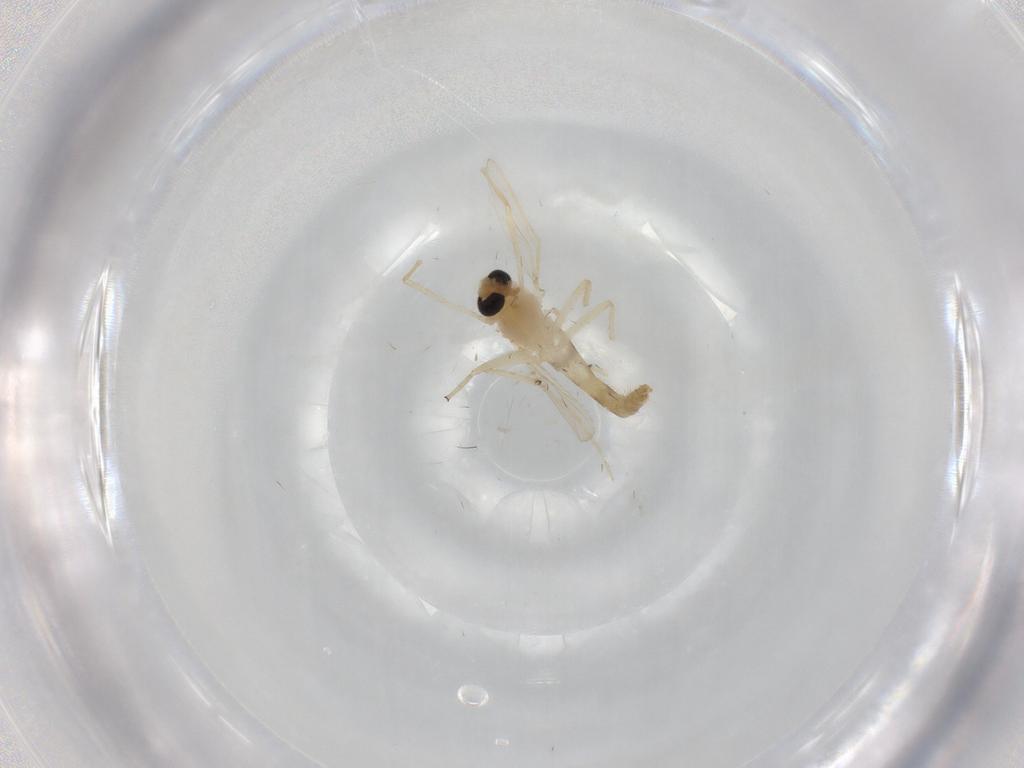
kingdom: Animalia
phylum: Arthropoda
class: Insecta
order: Diptera
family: Chironomidae
